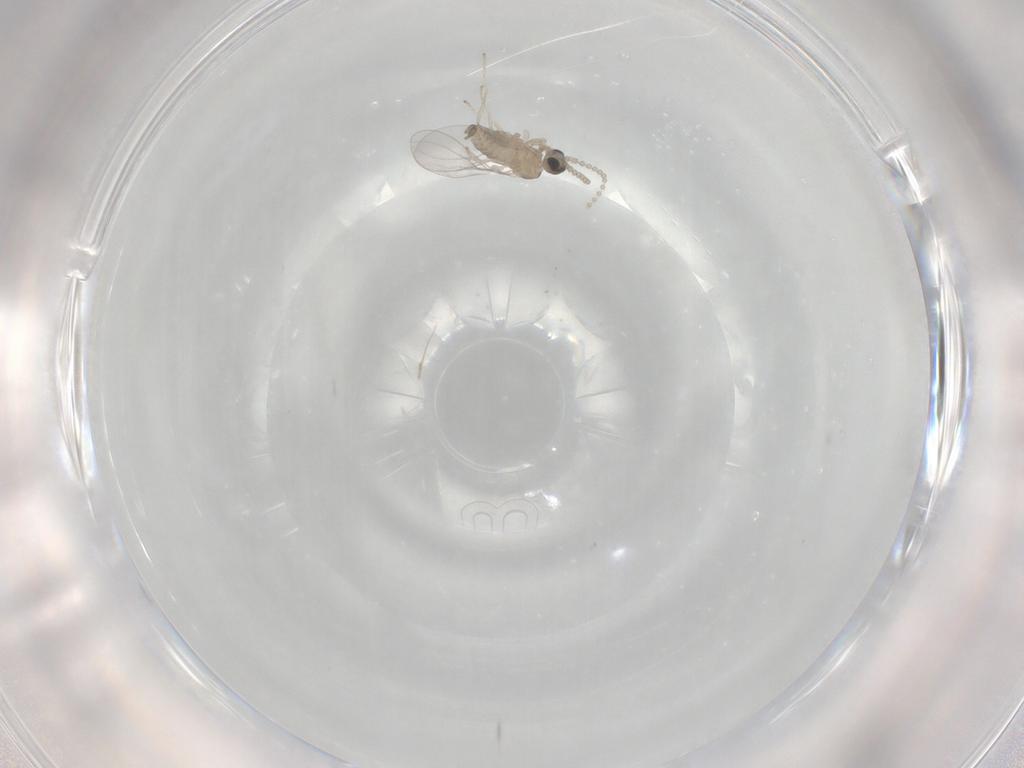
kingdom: Animalia
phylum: Arthropoda
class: Insecta
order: Diptera
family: Cecidomyiidae
